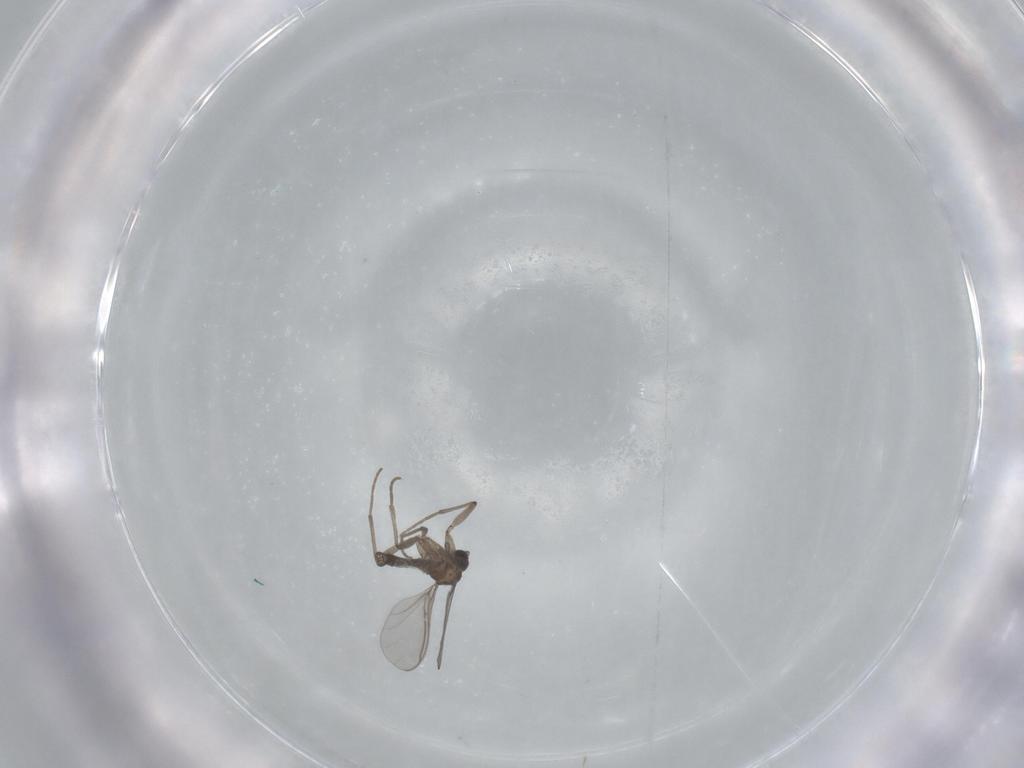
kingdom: Animalia
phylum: Arthropoda
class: Insecta
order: Diptera
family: Sciaridae
